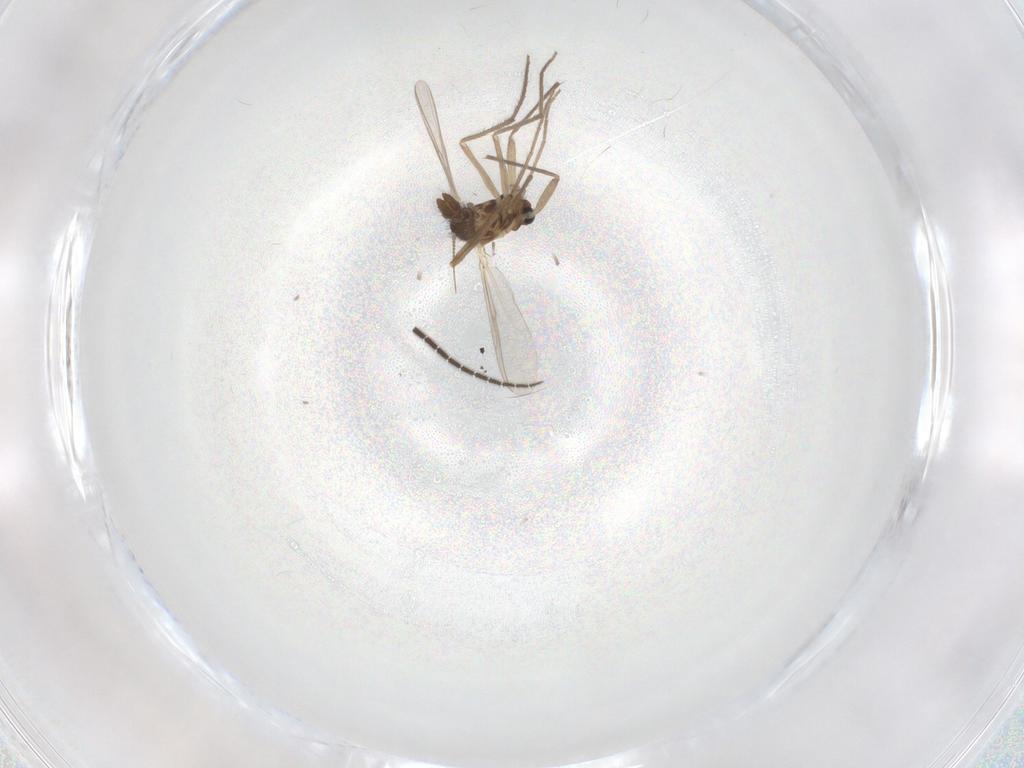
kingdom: Animalia
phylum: Arthropoda
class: Insecta
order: Diptera
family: Chironomidae
